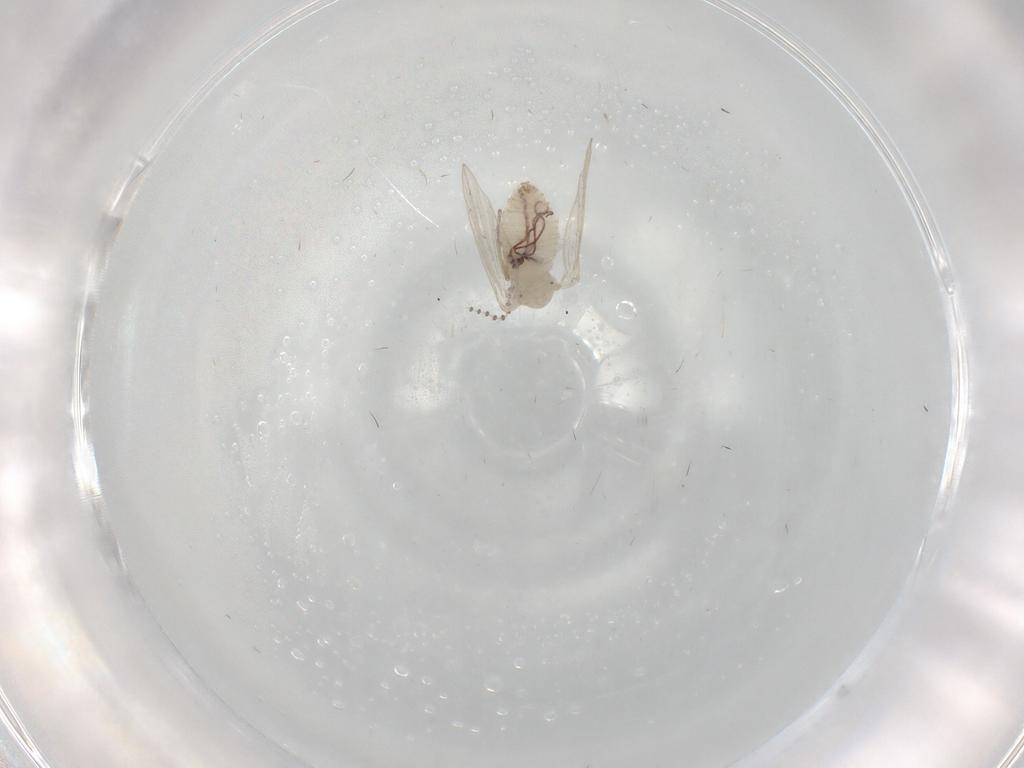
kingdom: Animalia
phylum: Arthropoda
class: Insecta
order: Diptera
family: Psychodidae
